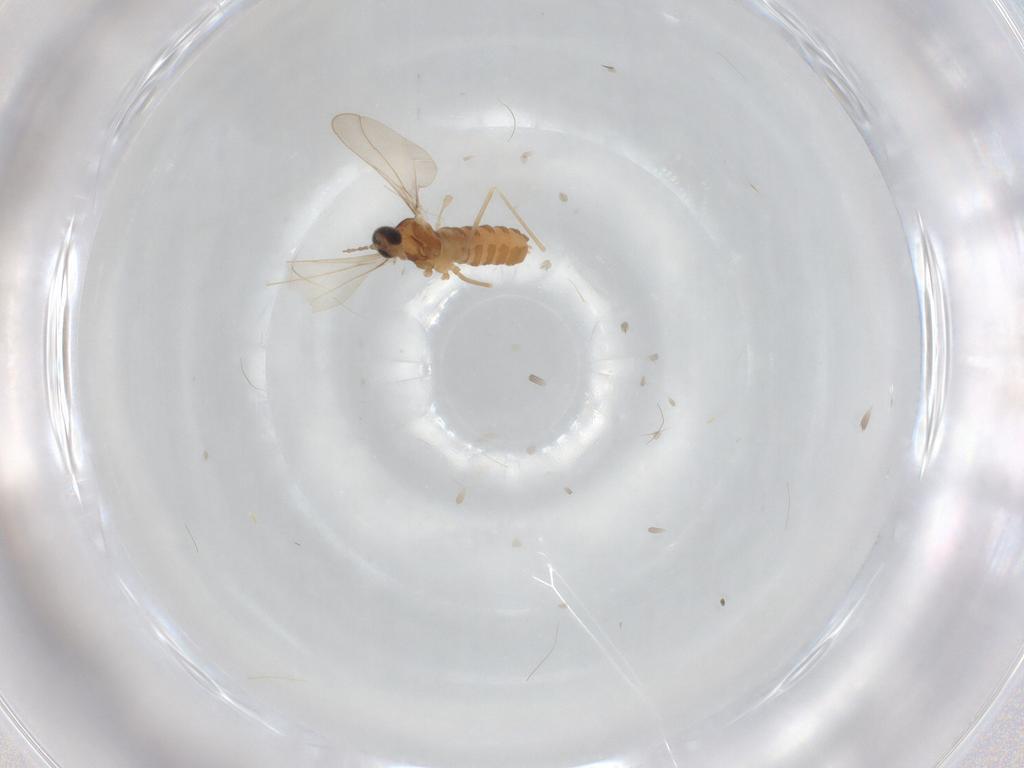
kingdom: Animalia
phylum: Arthropoda
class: Insecta
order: Diptera
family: Cecidomyiidae
